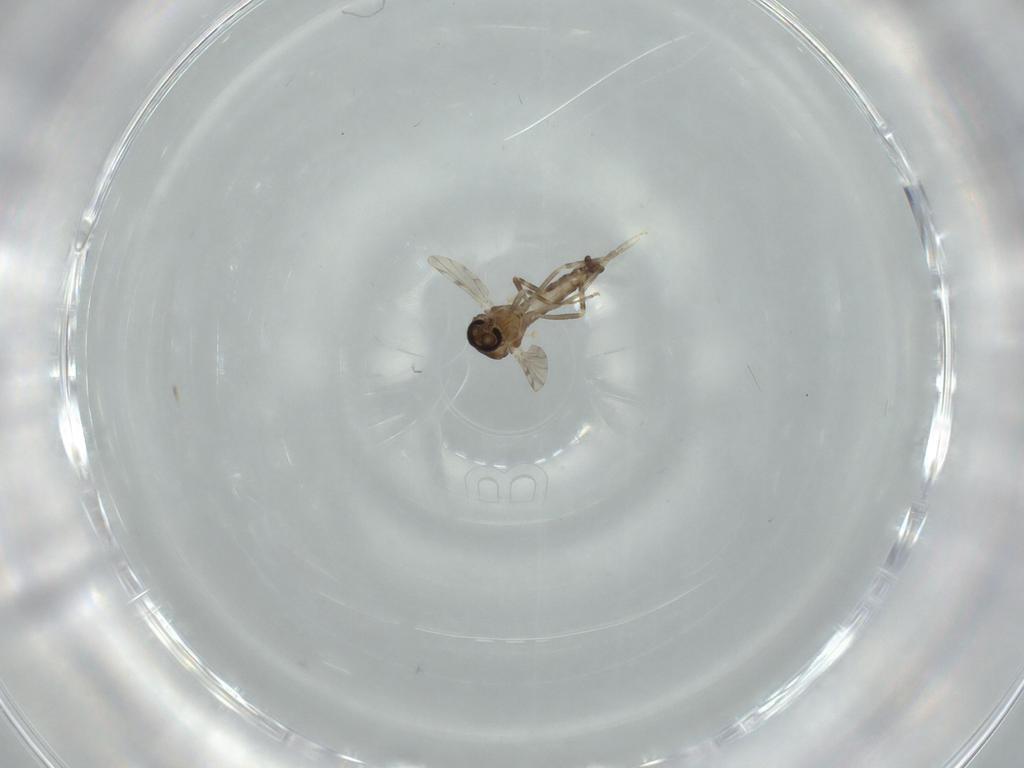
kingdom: Animalia
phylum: Arthropoda
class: Insecta
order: Diptera
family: Ceratopogonidae
